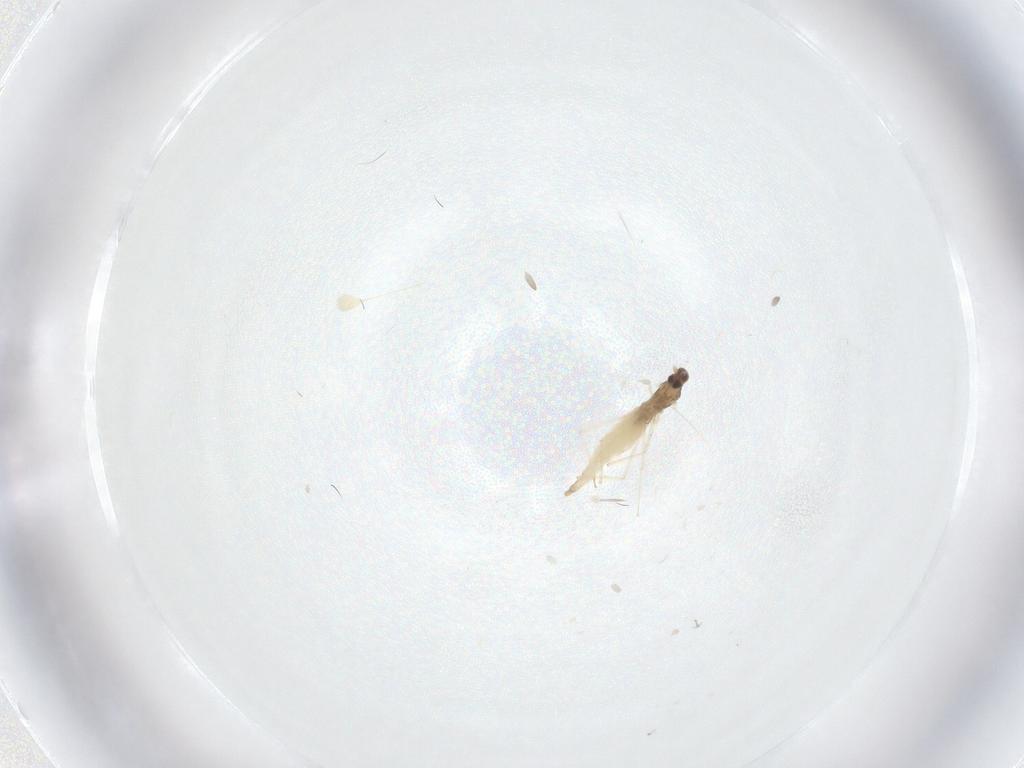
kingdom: Animalia
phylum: Arthropoda
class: Insecta
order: Diptera
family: Cecidomyiidae
